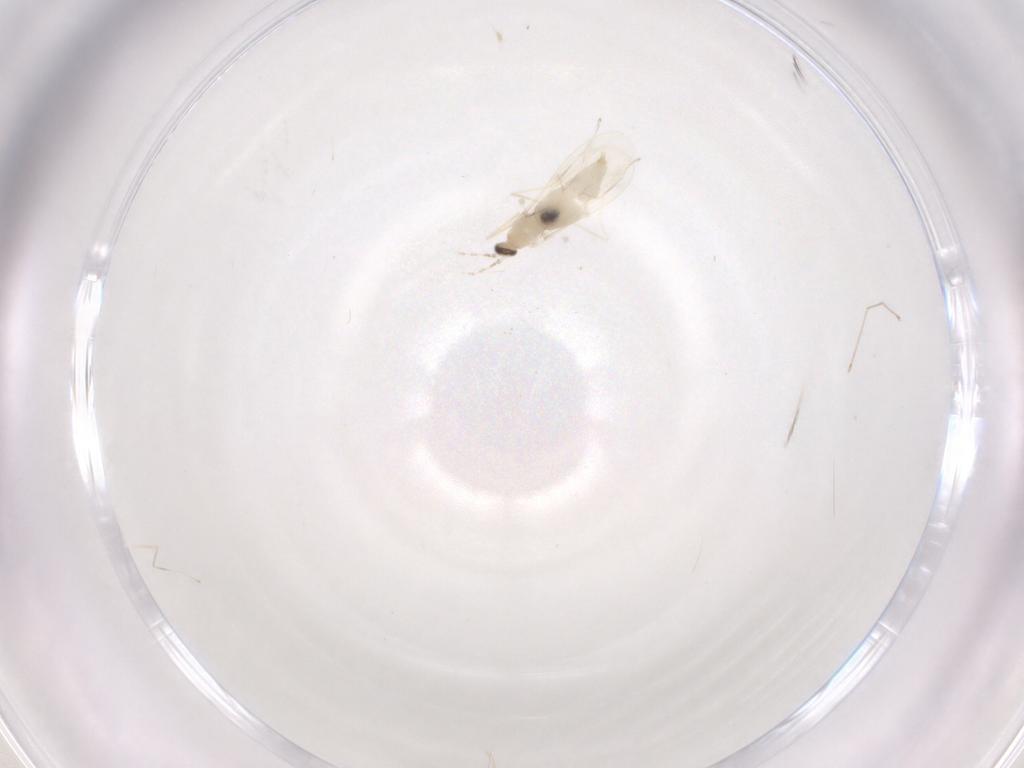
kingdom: Animalia
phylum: Arthropoda
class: Insecta
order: Diptera
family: Cecidomyiidae
